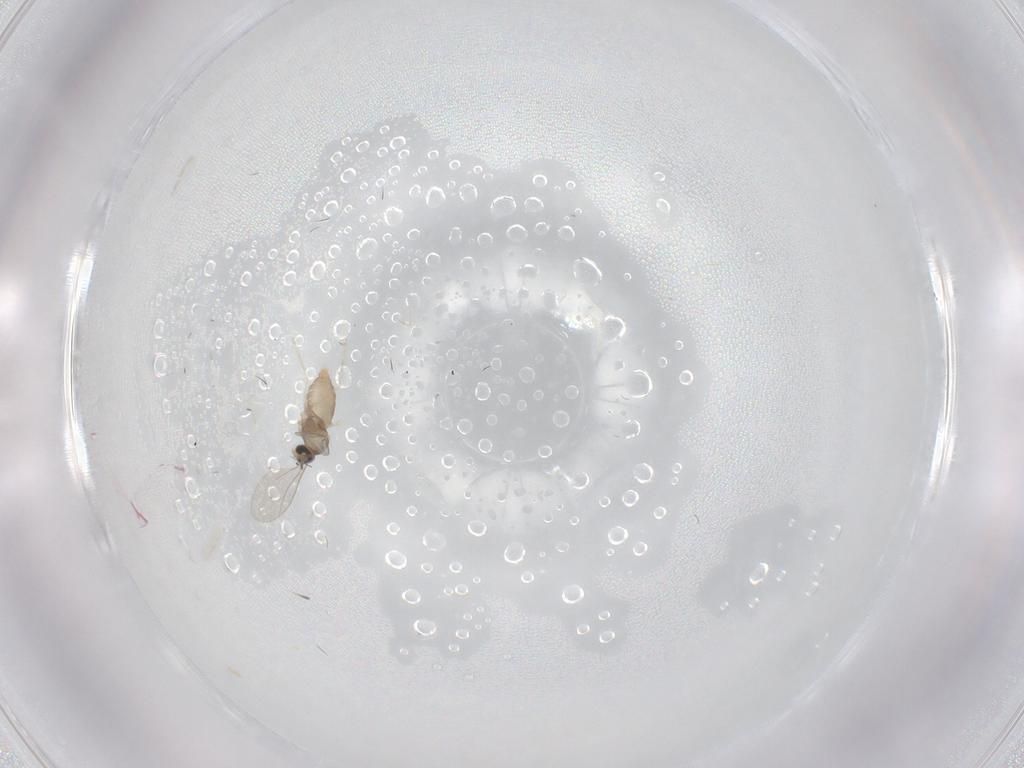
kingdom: Animalia
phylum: Arthropoda
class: Insecta
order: Diptera
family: Cecidomyiidae
